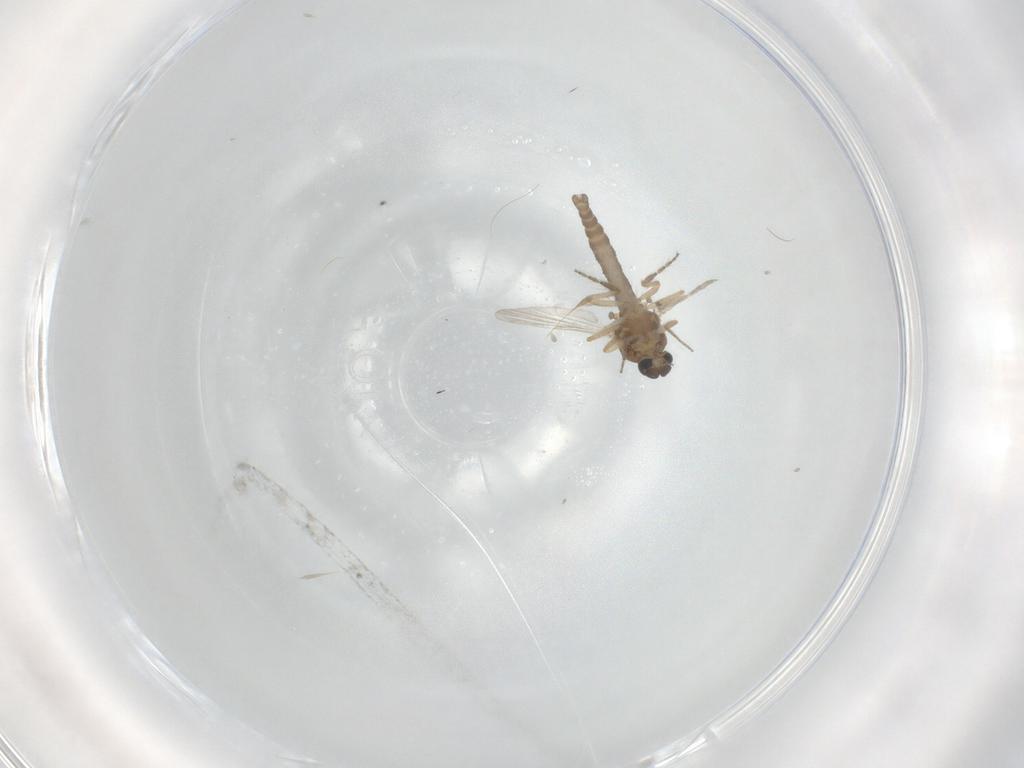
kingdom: Animalia
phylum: Arthropoda
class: Insecta
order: Diptera
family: Ceratopogonidae
